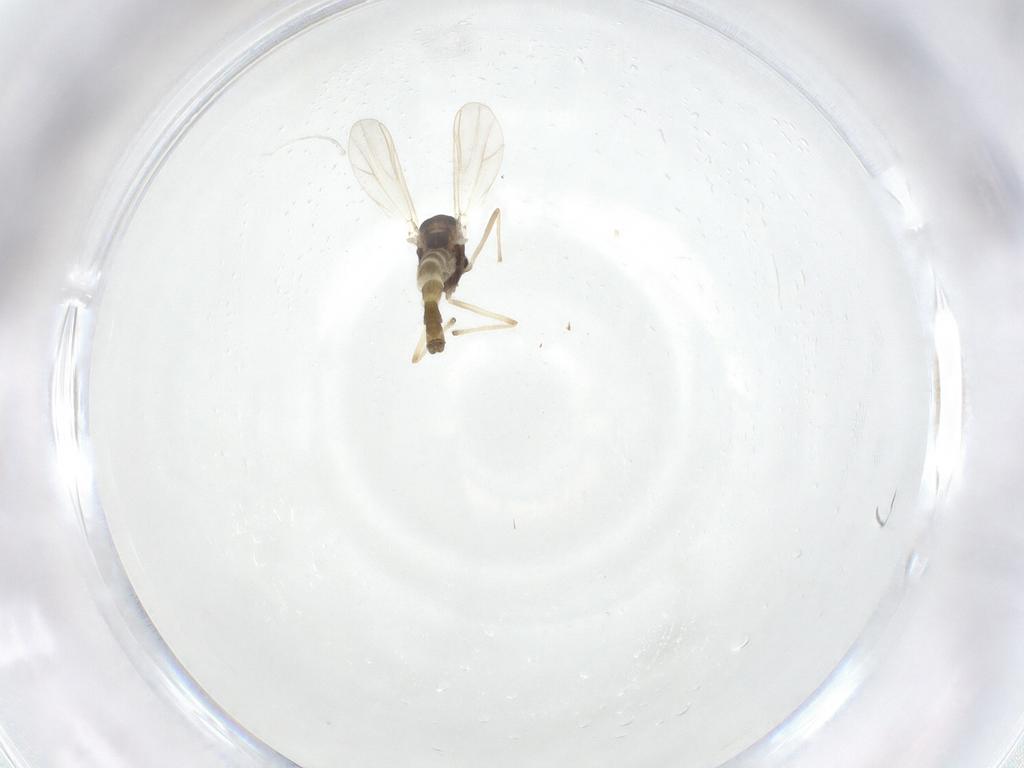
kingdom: Animalia
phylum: Arthropoda
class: Insecta
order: Diptera
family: Chironomidae
